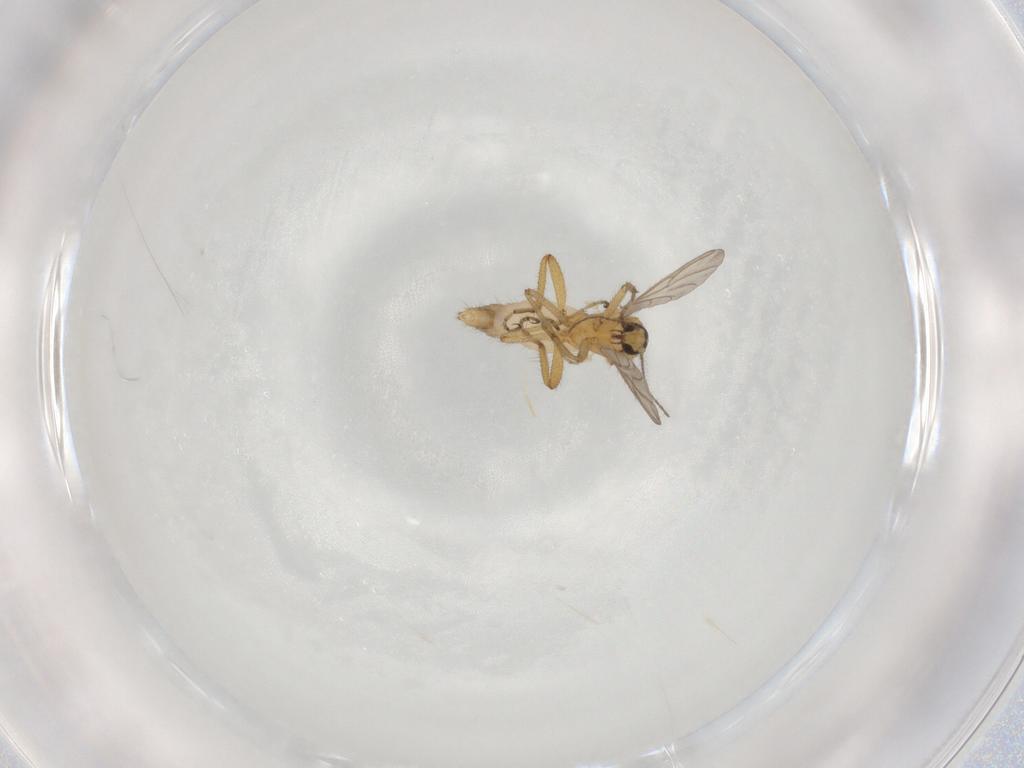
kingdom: Animalia
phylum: Arthropoda
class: Insecta
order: Diptera
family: Ceratopogonidae
